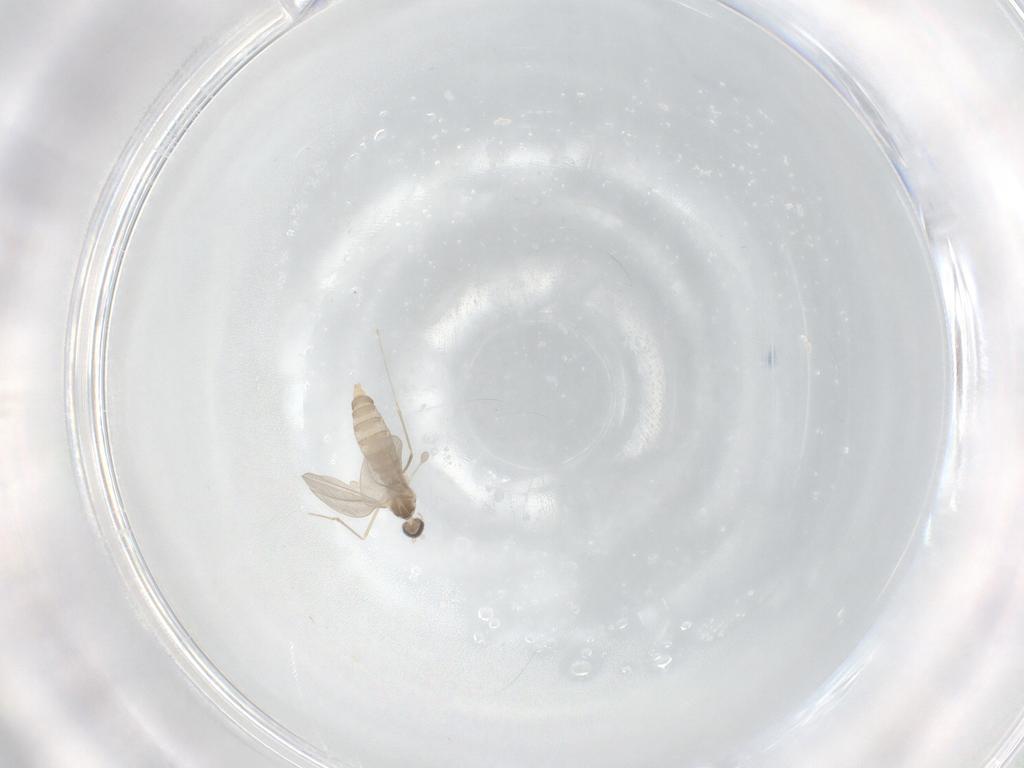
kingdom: Animalia
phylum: Arthropoda
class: Insecta
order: Diptera
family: Cecidomyiidae
